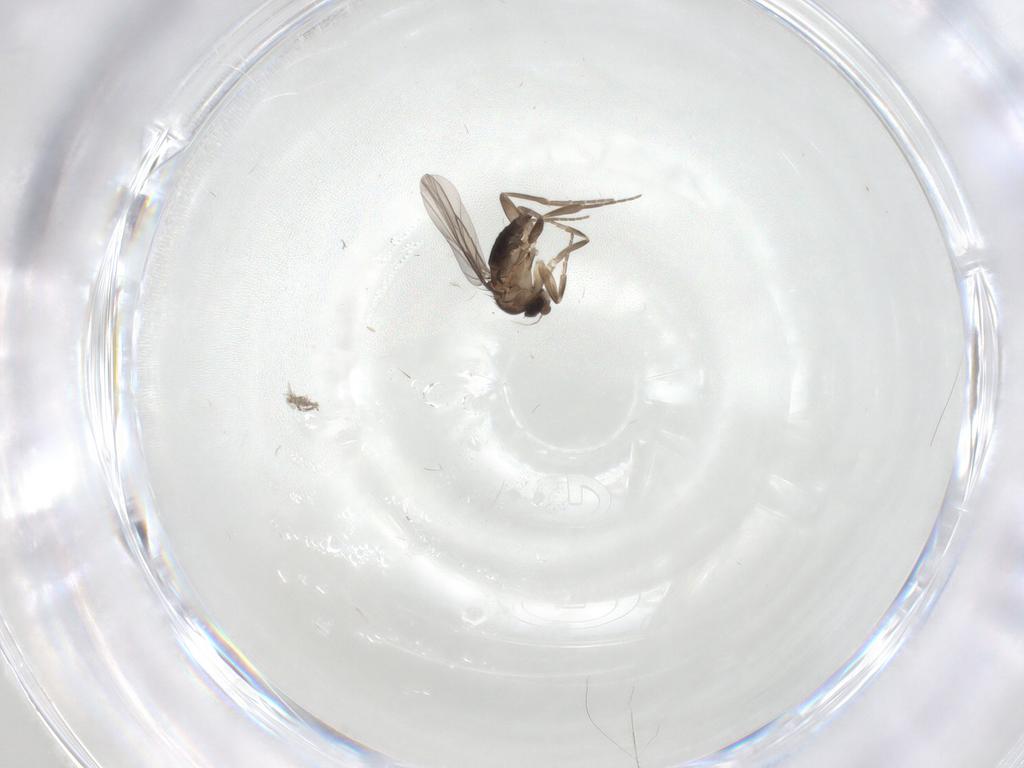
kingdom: Animalia
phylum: Arthropoda
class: Insecta
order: Diptera
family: Phoridae
